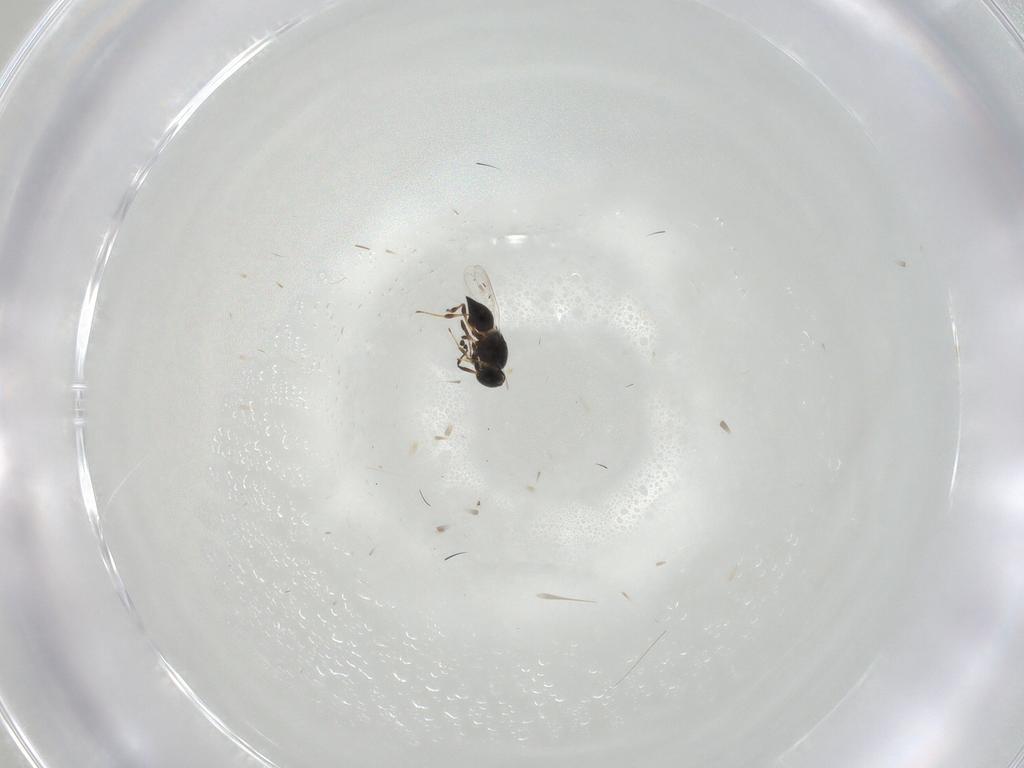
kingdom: Animalia
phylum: Arthropoda
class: Insecta
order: Hymenoptera
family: Platygastridae
